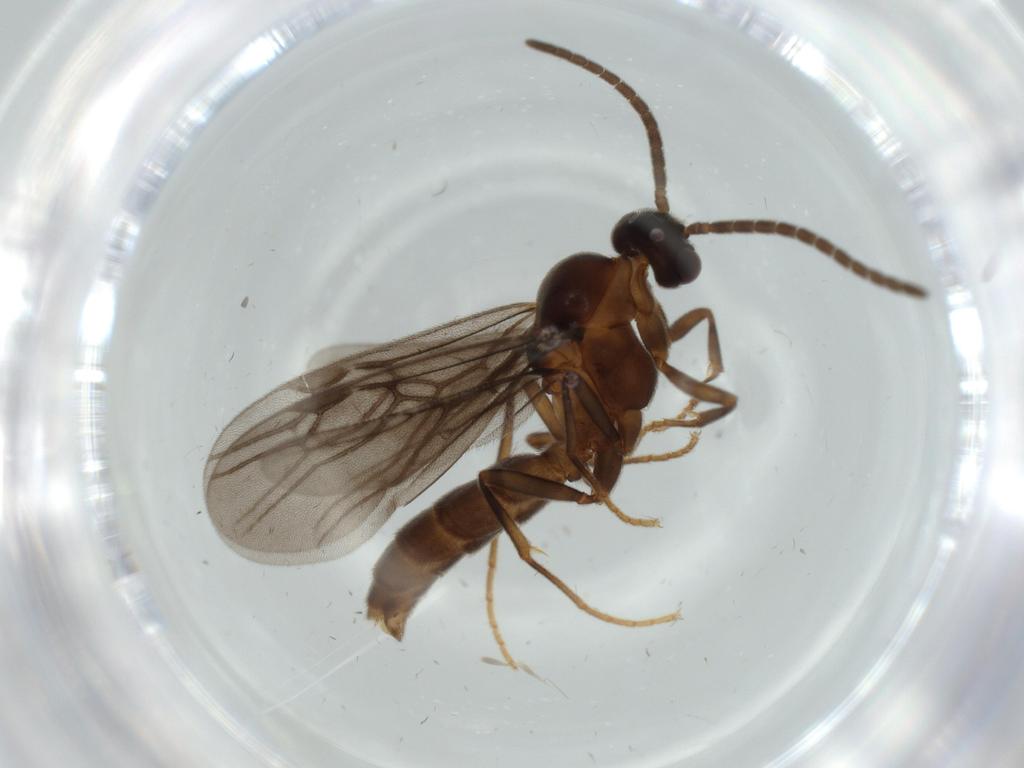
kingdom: Animalia
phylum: Arthropoda
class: Insecta
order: Hymenoptera
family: Formicidae
